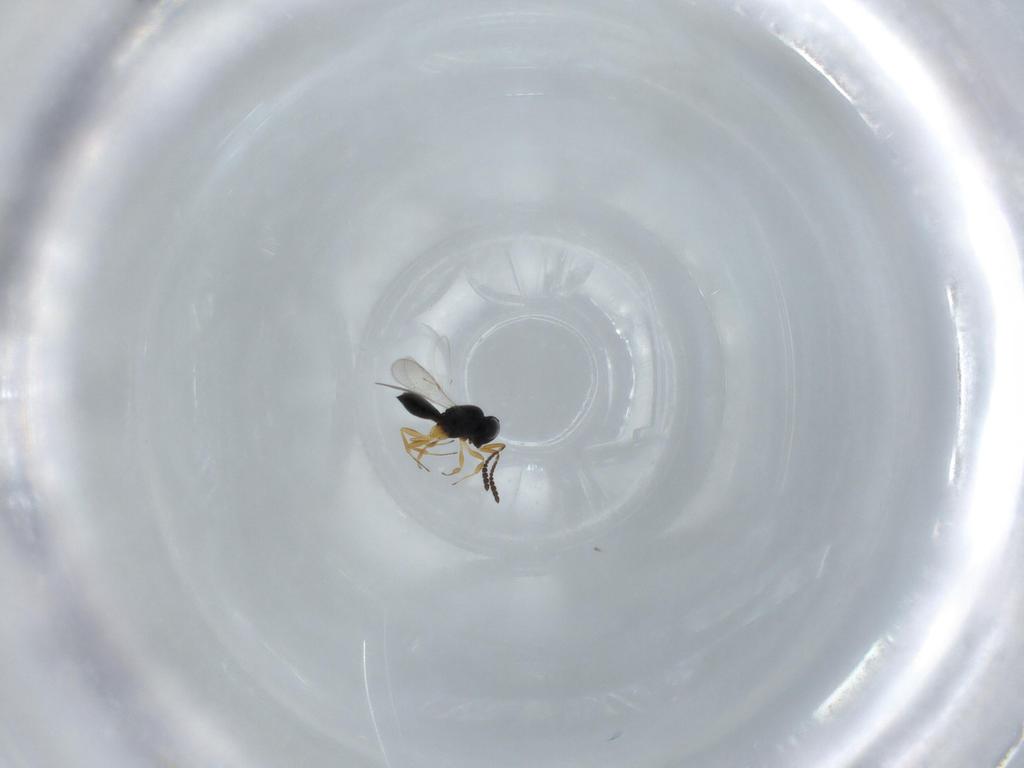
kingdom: Animalia
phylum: Arthropoda
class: Insecta
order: Hymenoptera
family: Scelionidae
